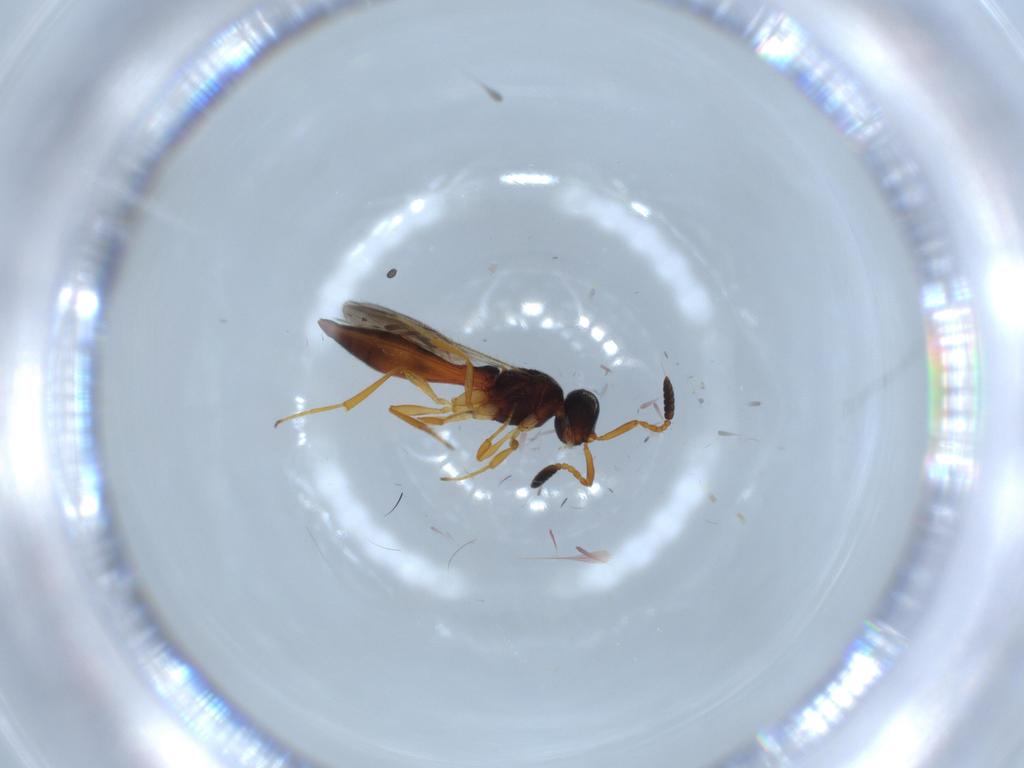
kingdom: Animalia
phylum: Arthropoda
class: Insecta
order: Hymenoptera
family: Scelionidae
